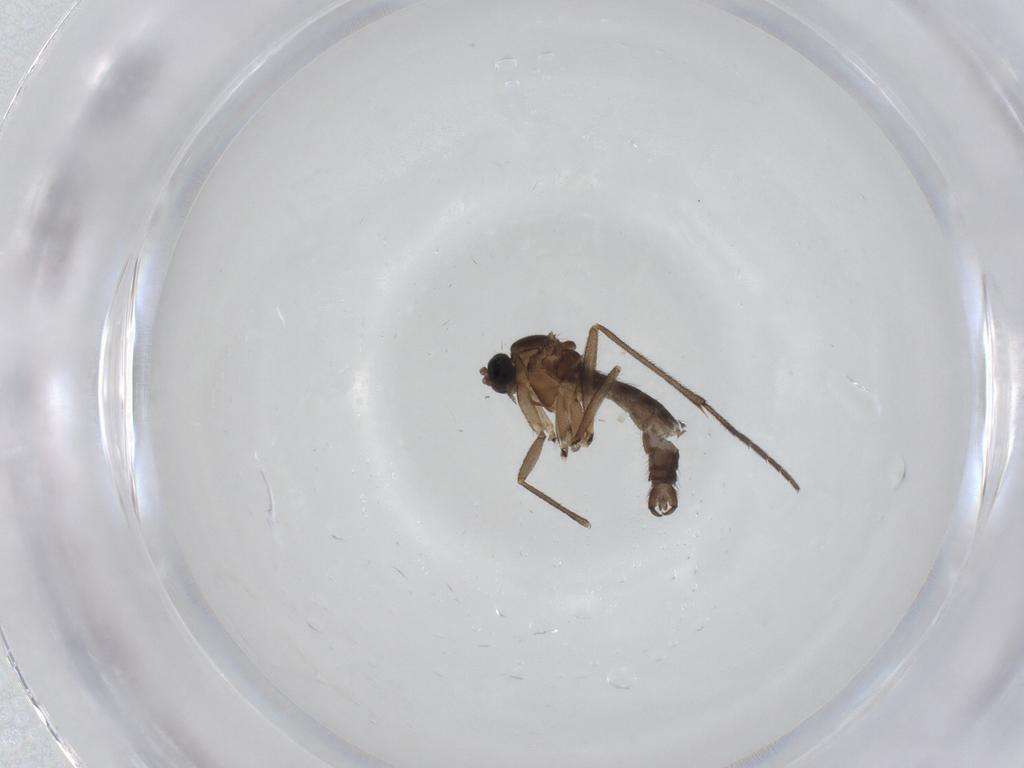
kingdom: Animalia
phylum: Arthropoda
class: Insecta
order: Diptera
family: Sciaridae
